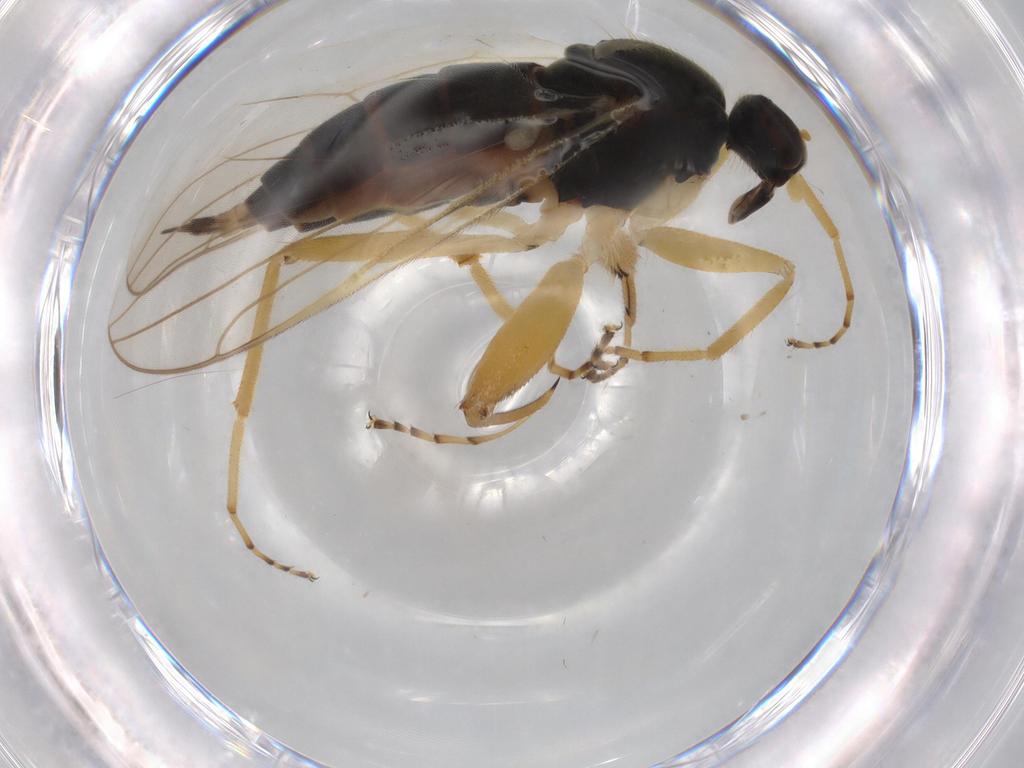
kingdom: Animalia
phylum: Arthropoda
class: Insecta
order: Diptera
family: Hybotidae
